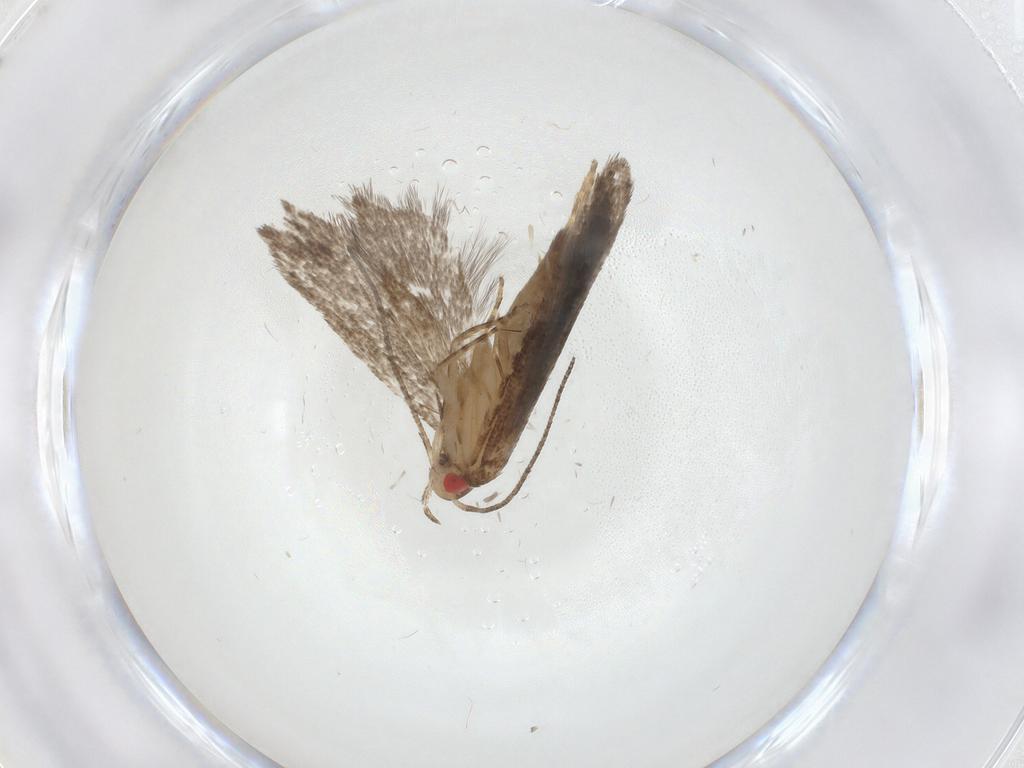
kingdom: Animalia
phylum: Arthropoda
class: Insecta
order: Lepidoptera
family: Gelechiidae
